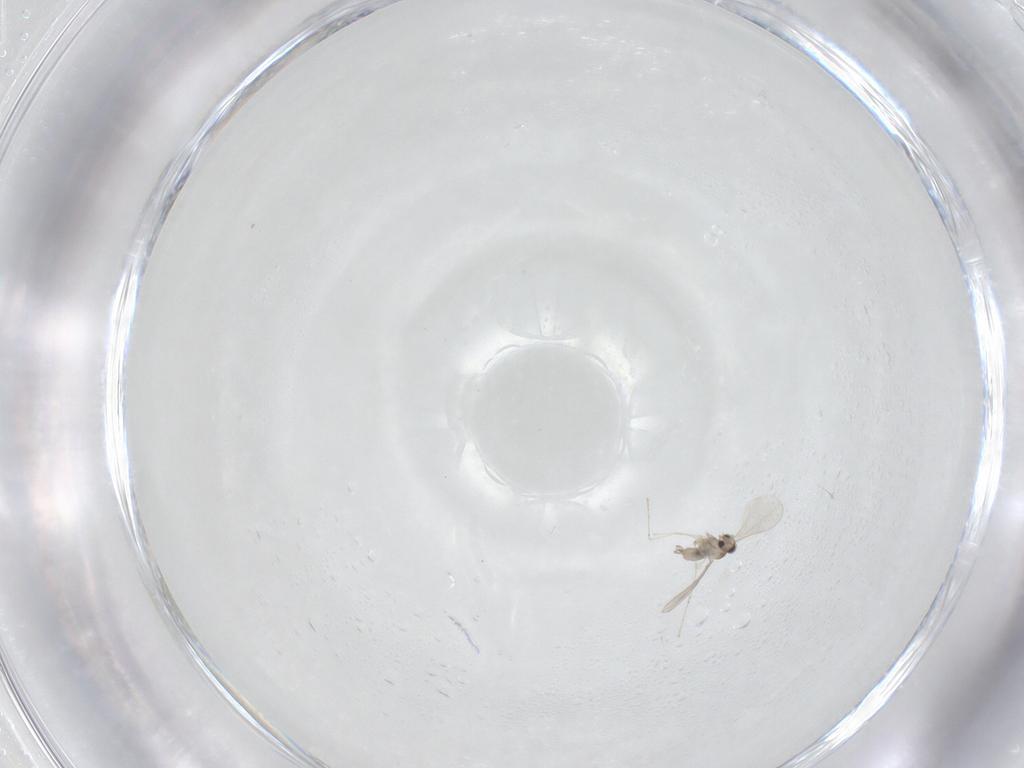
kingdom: Animalia
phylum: Arthropoda
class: Insecta
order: Diptera
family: Cecidomyiidae
